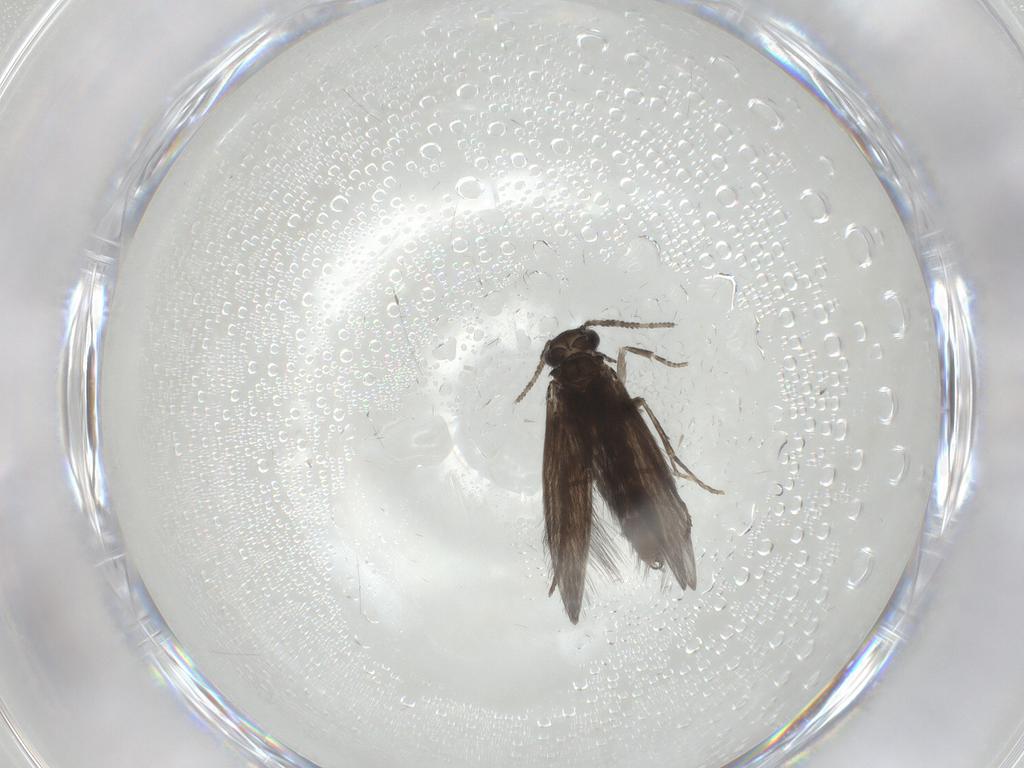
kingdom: Animalia
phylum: Arthropoda
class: Insecta
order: Trichoptera
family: Hydroptilidae
